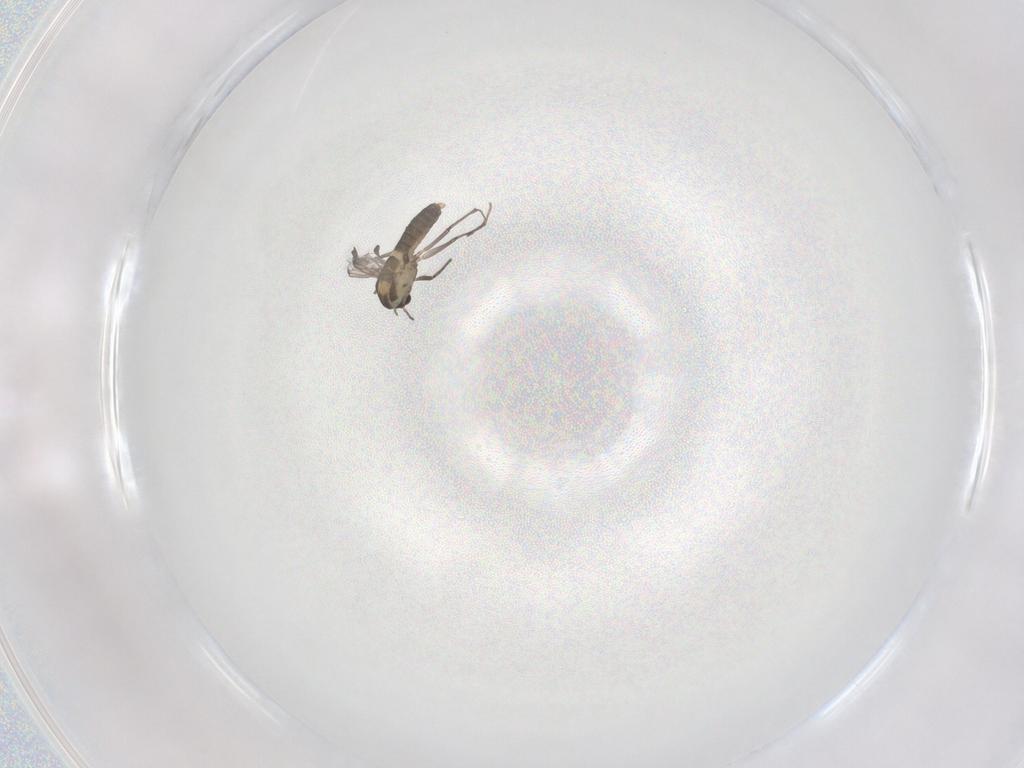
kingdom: Animalia
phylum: Arthropoda
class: Insecta
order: Diptera
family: Chironomidae
